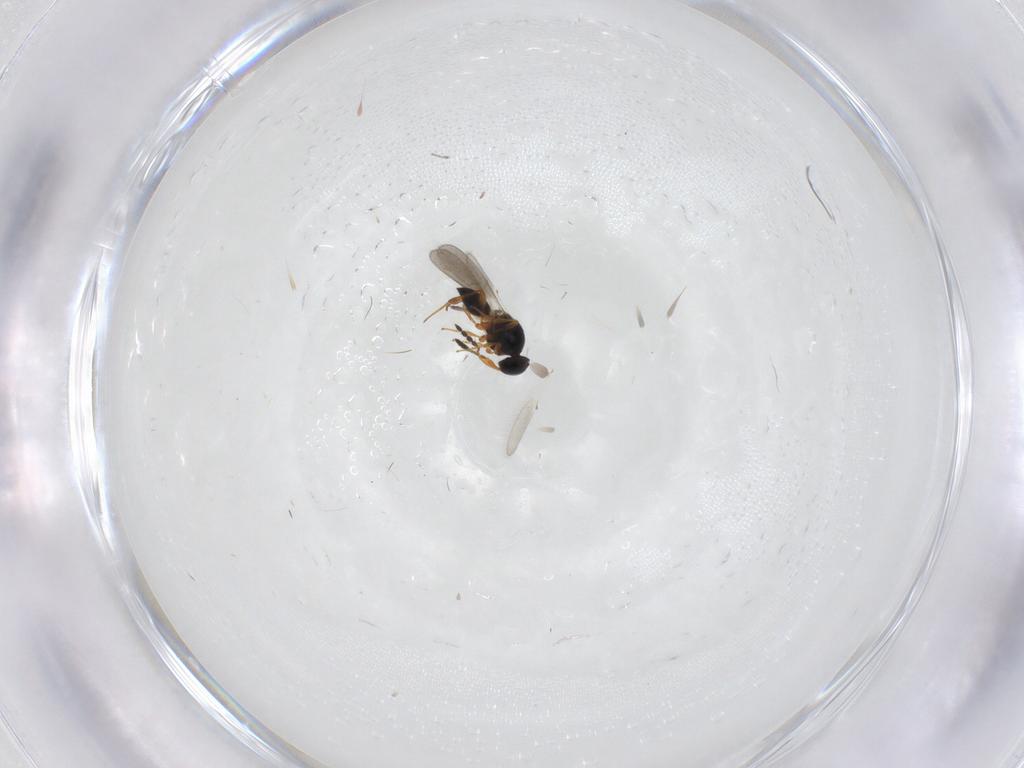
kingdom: Animalia
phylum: Arthropoda
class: Insecta
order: Hymenoptera
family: Platygastridae
